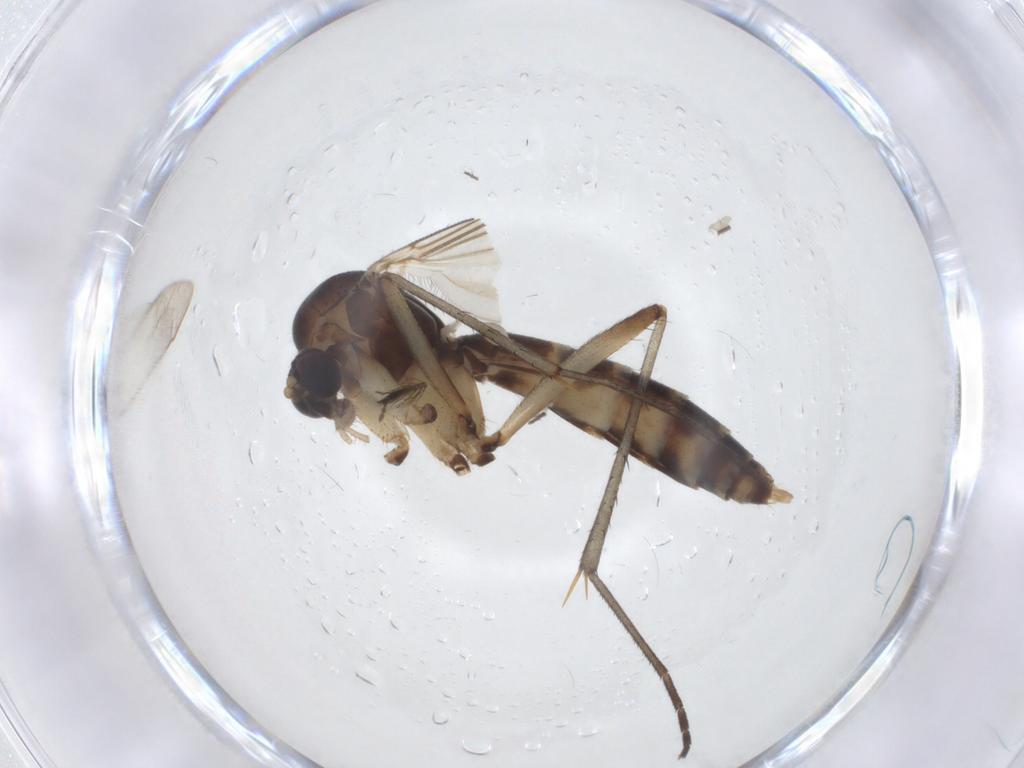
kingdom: Animalia
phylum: Arthropoda
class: Insecta
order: Diptera
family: Mycetophilidae
